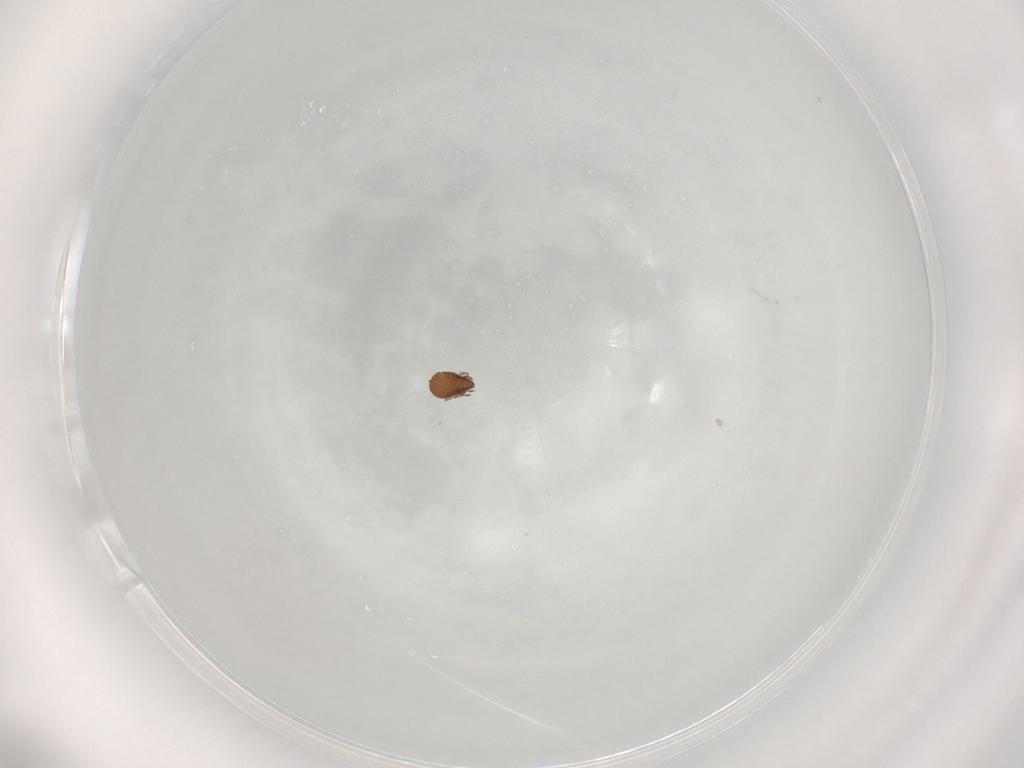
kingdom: Animalia
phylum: Arthropoda
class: Arachnida
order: Sarcoptiformes
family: Tectocepheidae
